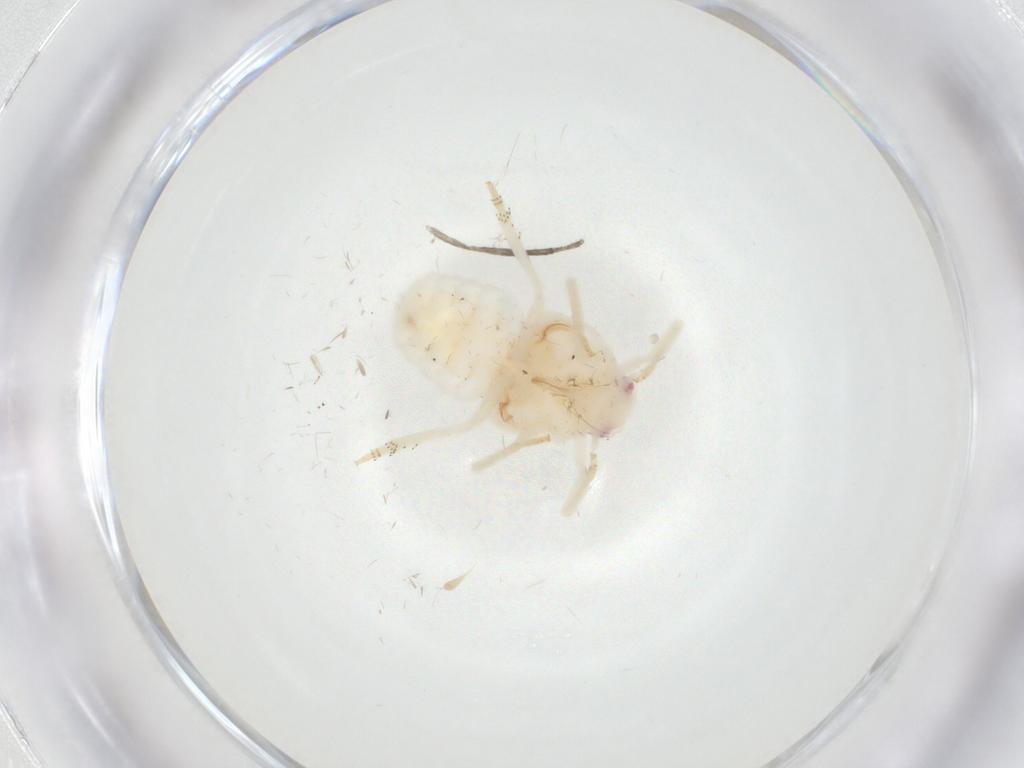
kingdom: Animalia
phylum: Arthropoda
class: Insecta
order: Hemiptera
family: Flatidae
